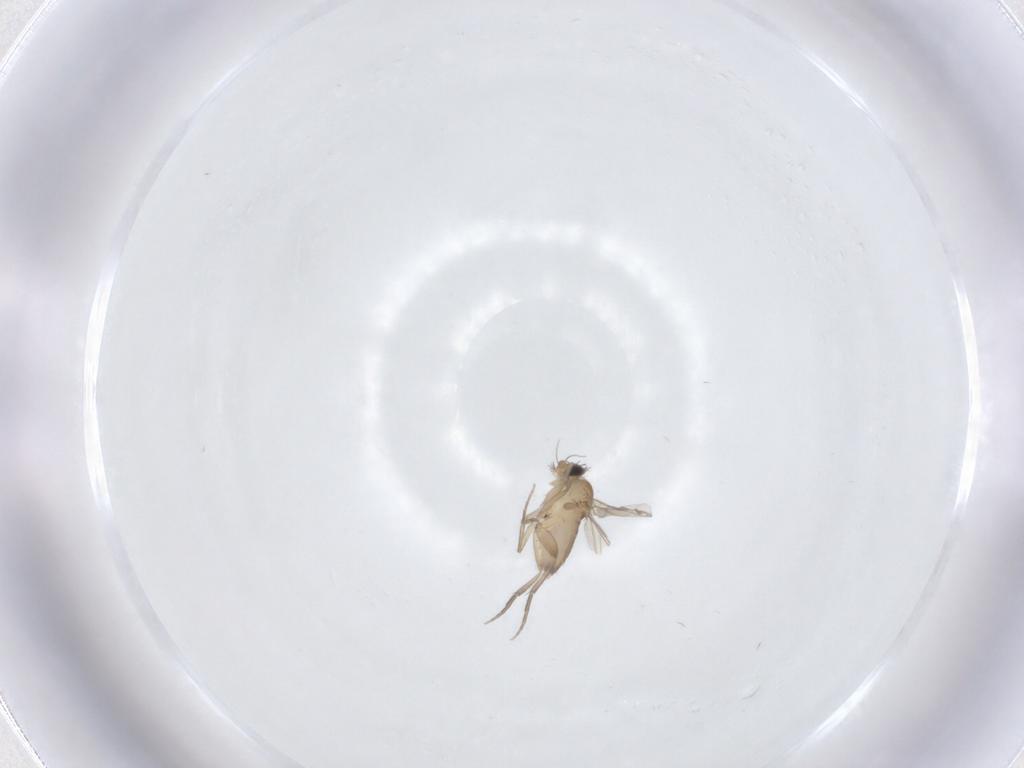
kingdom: Animalia
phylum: Arthropoda
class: Insecta
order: Diptera
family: Phoridae
